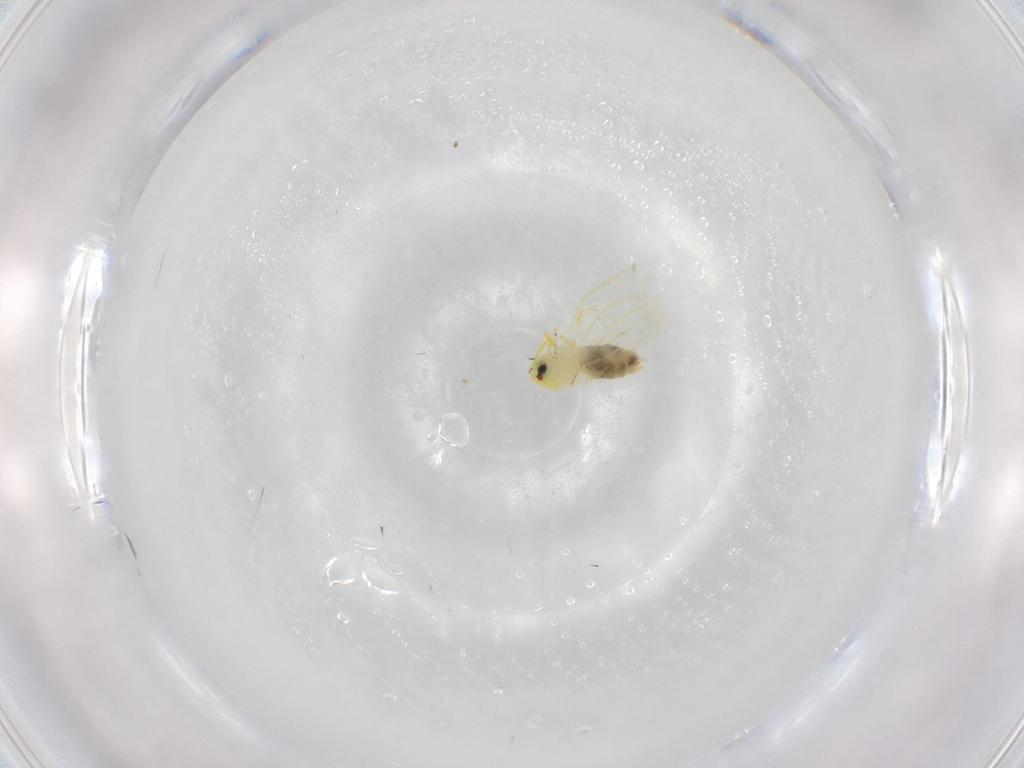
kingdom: Animalia
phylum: Arthropoda
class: Insecta
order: Hemiptera
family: Aleyrodidae
